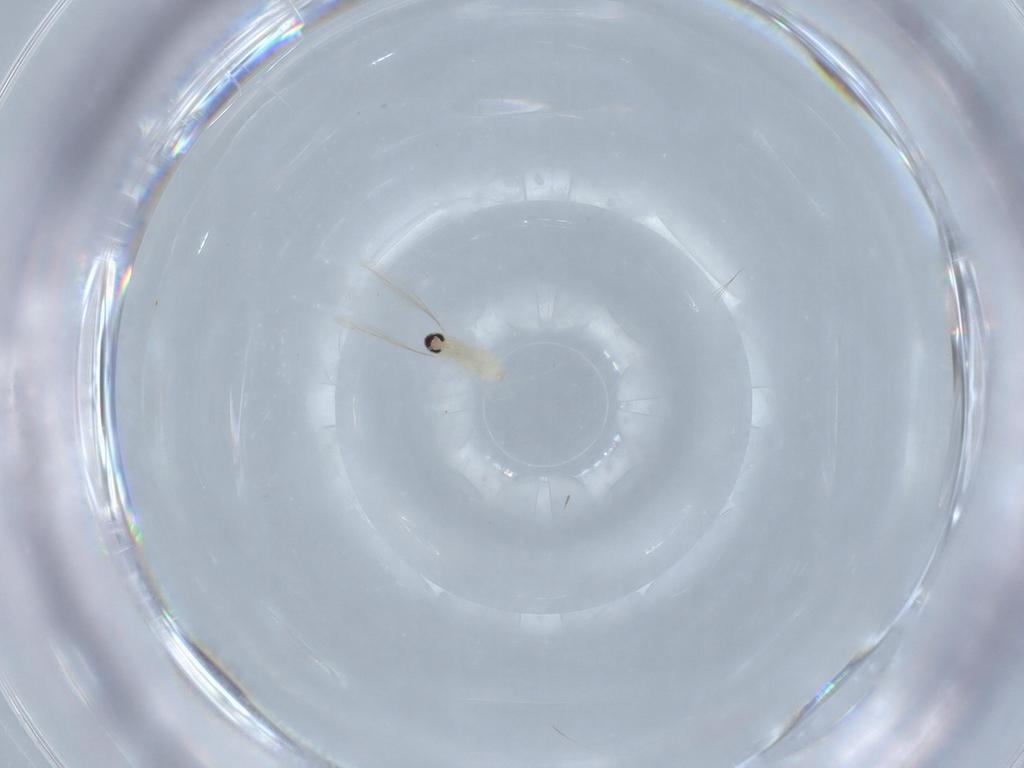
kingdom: Animalia
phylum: Arthropoda
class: Insecta
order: Diptera
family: Cecidomyiidae
